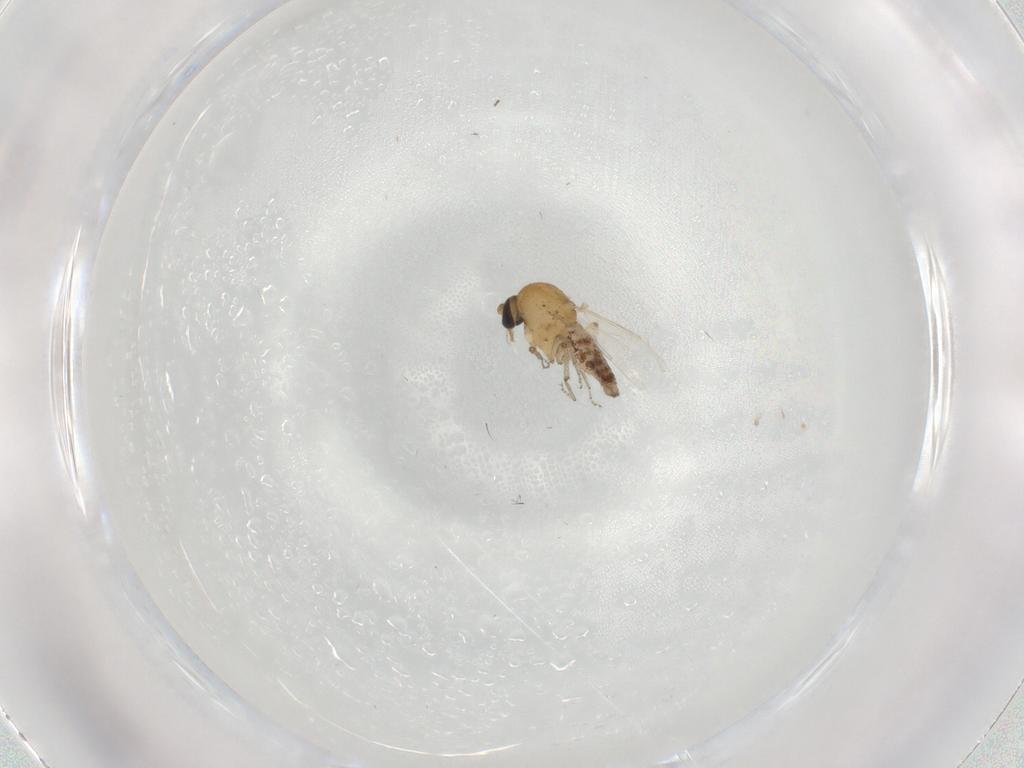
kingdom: Animalia
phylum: Arthropoda
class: Insecta
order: Diptera
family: Ceratopogonidae
